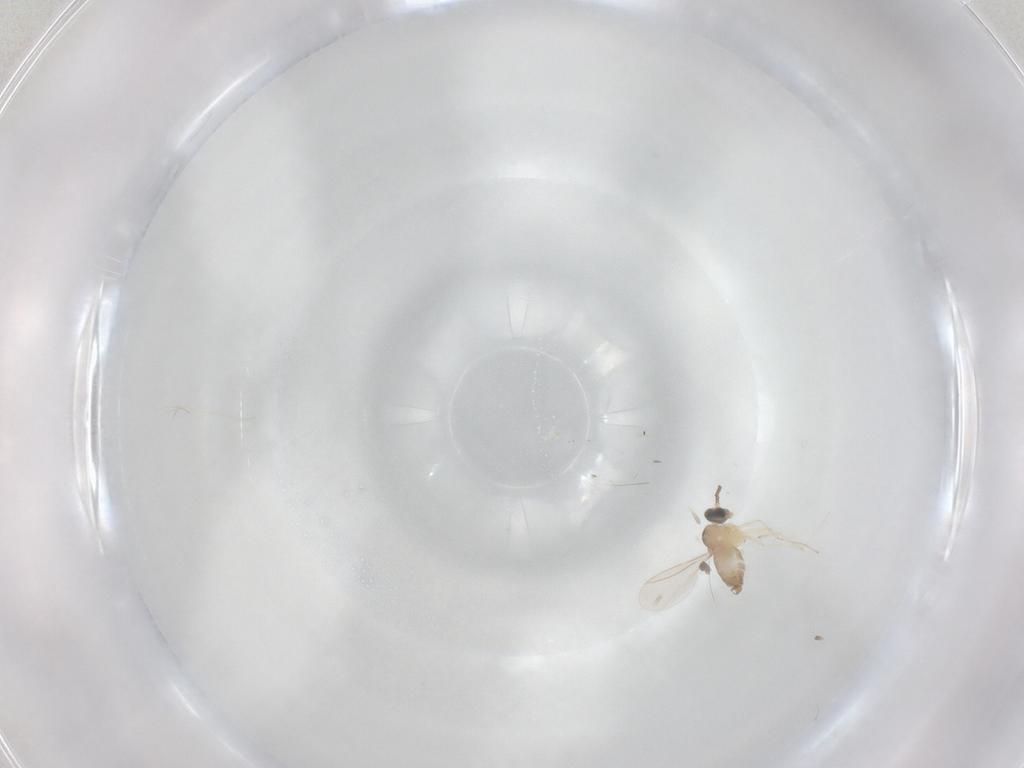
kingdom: Animalia
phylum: Arthropoda
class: Insecta
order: Diptera
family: Cecidomyiidae
